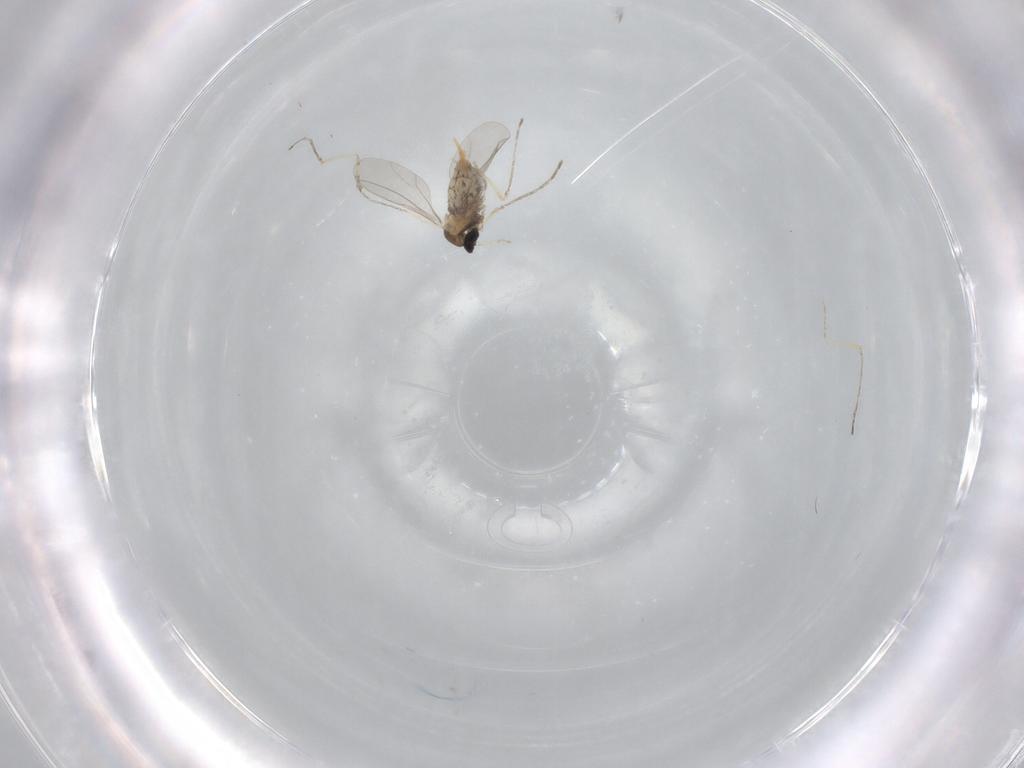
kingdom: Animalia
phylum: Arthropoda
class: Insecta
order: Diptera
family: Cecidomyiidae
